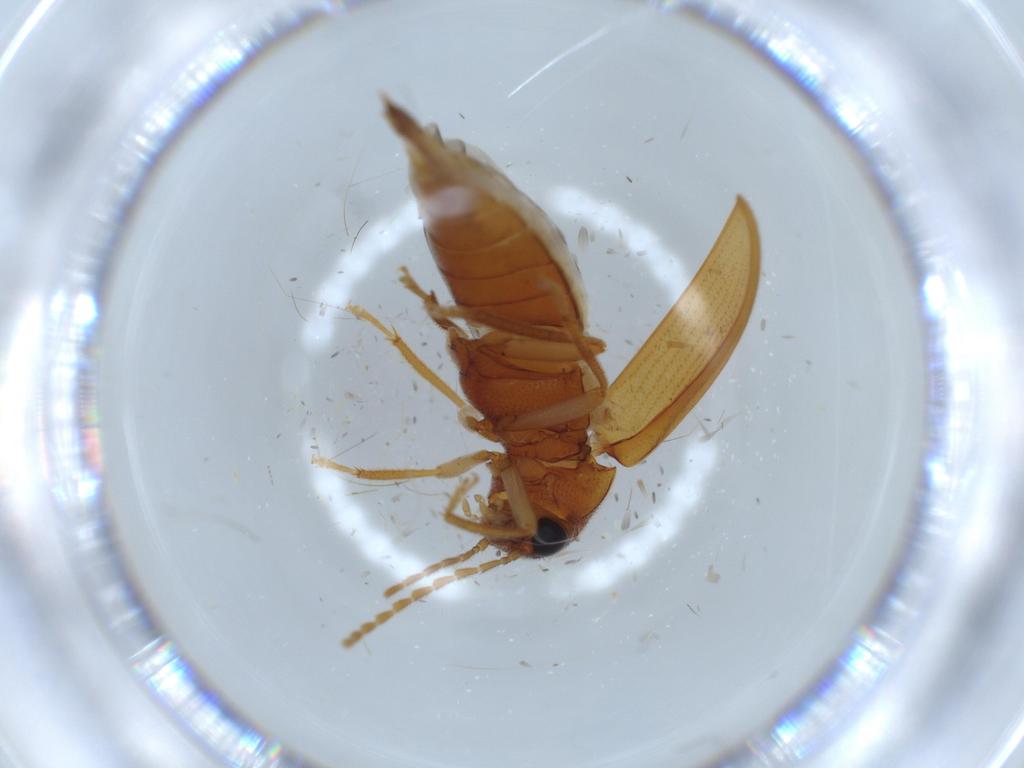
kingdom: Animalia
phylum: Arthropoda
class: Insecta
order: Coleoptera
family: Ptilodactylidae
